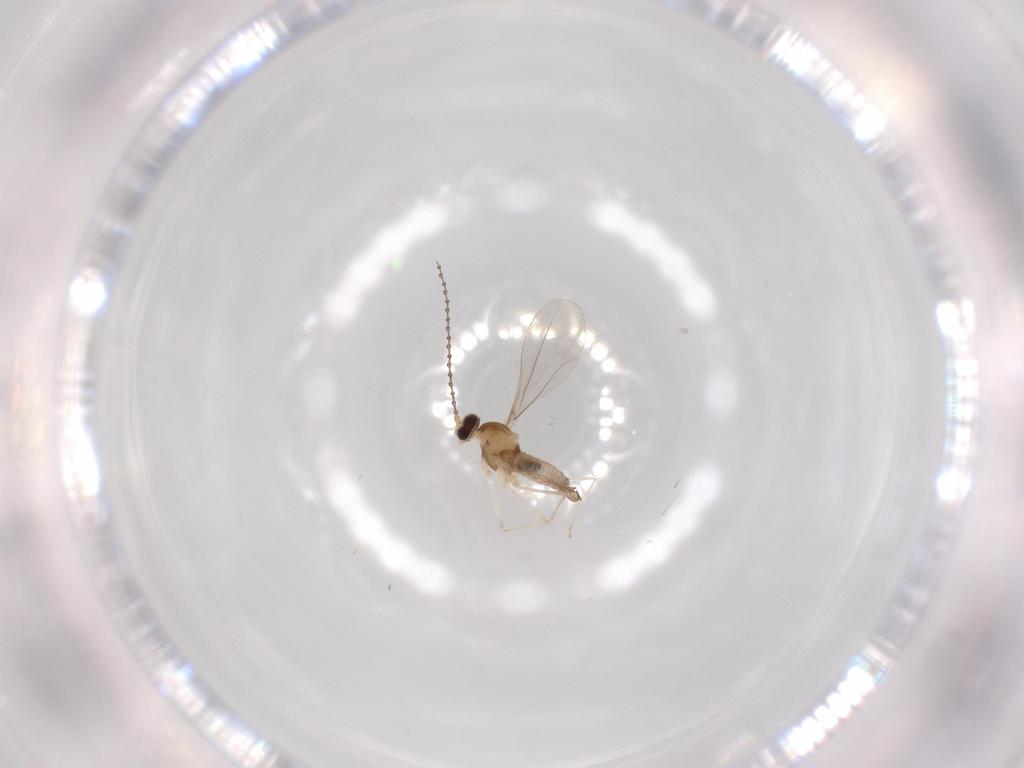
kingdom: Animalia
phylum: Arthropoda
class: Insecta
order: Diptera
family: Cecidomyiidae
